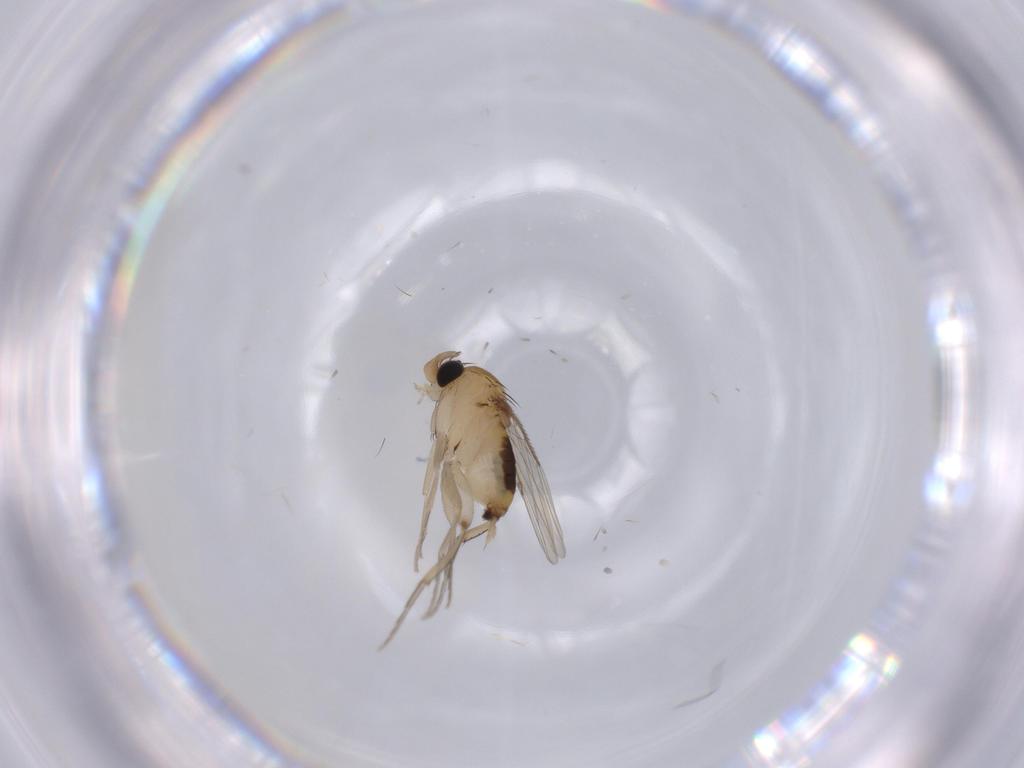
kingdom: Animalia
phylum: Arthropoda
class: Insecta
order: Diptera
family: Phoridae
